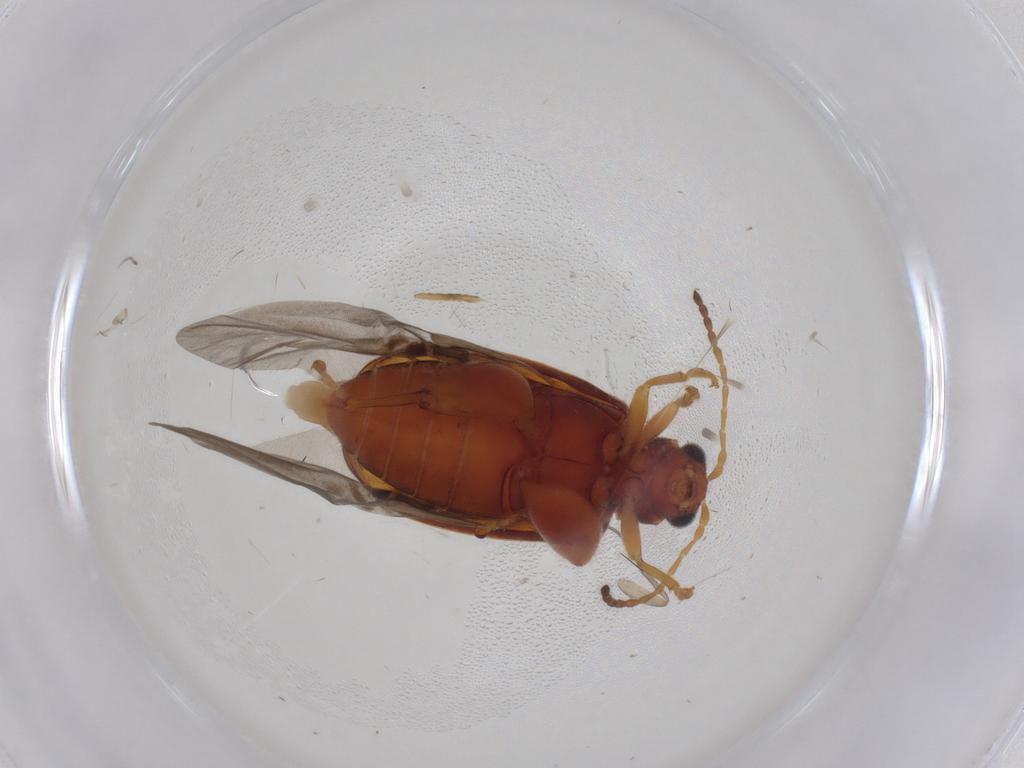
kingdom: Animalia
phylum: Arthropoda
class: Insecta
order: Coleoptera
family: Chrysomelidae
